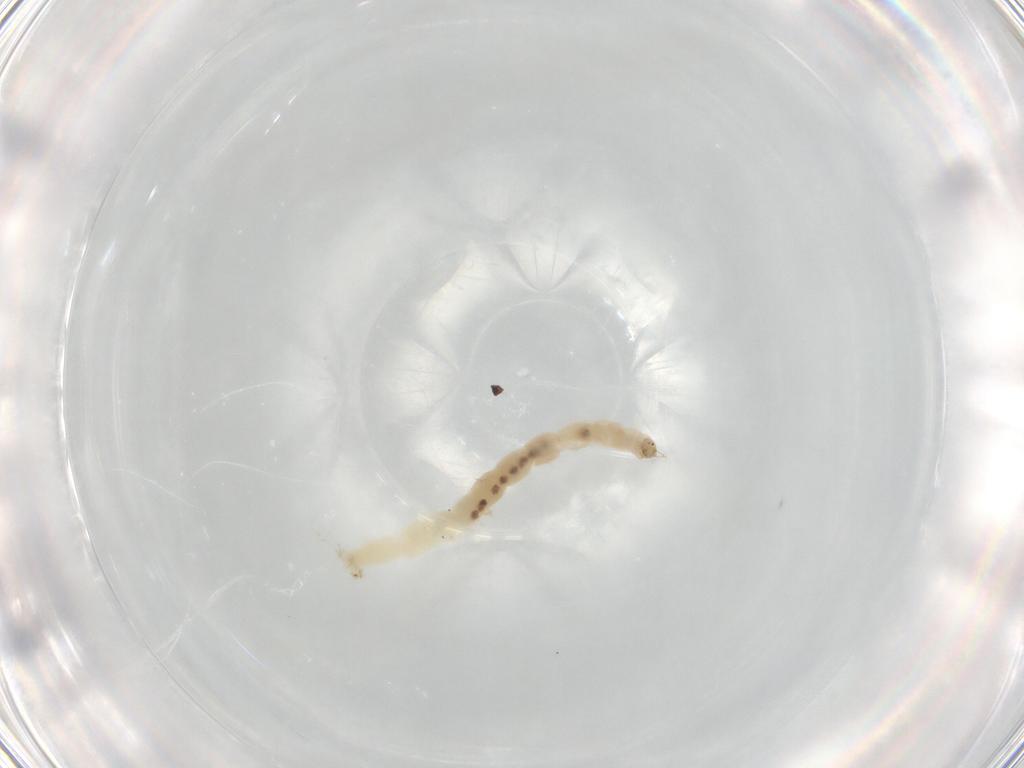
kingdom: Animalia
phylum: Arthropoda
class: Insecta
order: Diptera
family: Chironomidae
